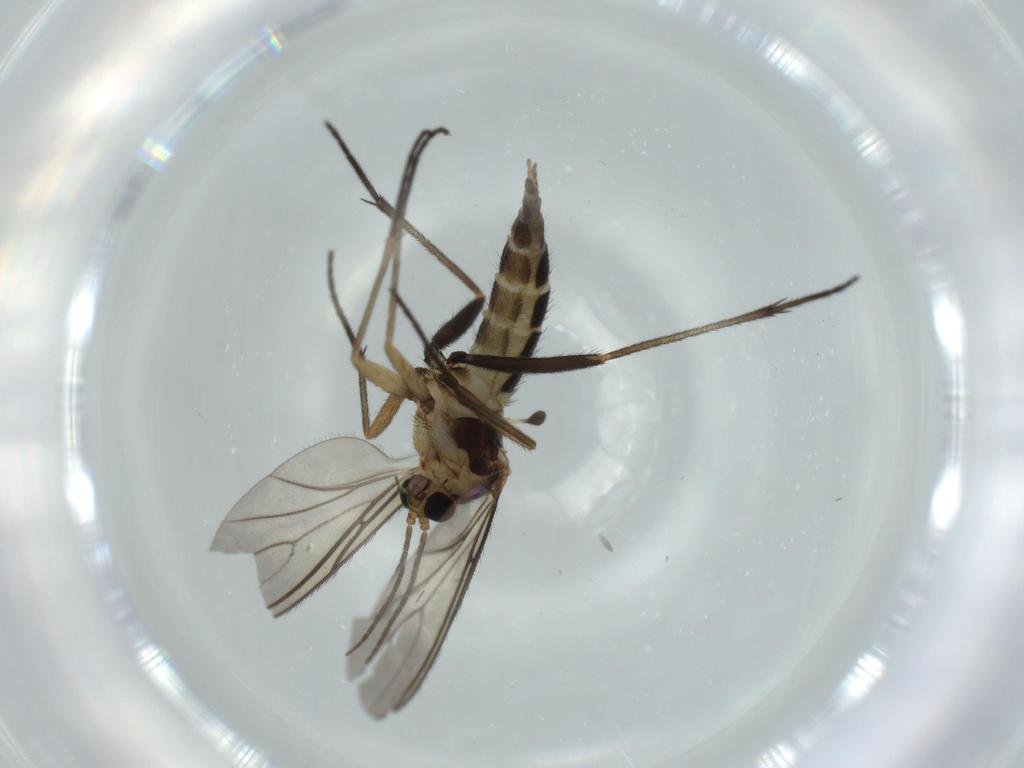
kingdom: Animalia
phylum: Arthropoda
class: Insecta
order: Diptera
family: Sciaridae
